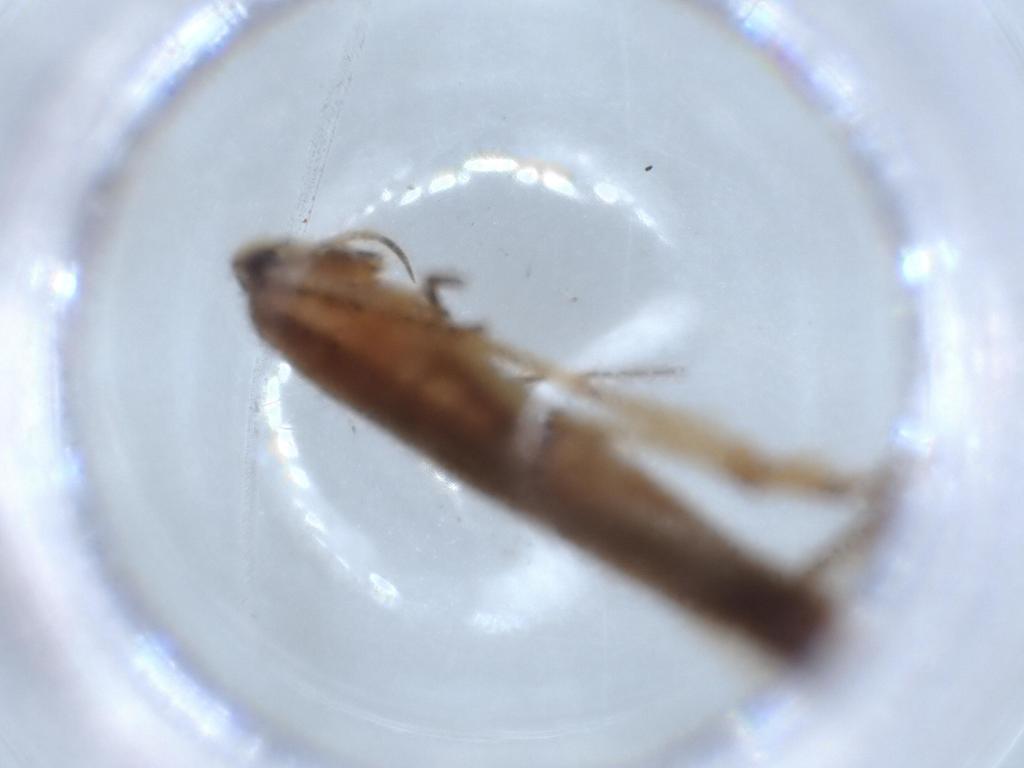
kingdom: Animalia
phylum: Arthropoda
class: Insecta
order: Lepidoptera
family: Stathmopodidae
